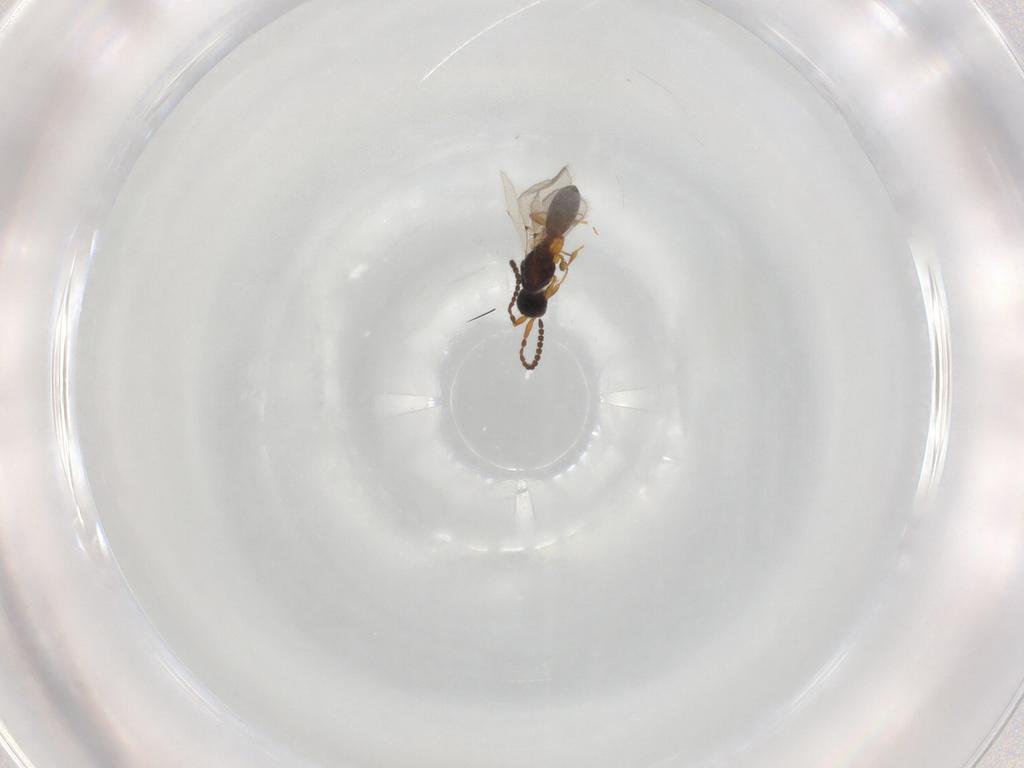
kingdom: Animalia
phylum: Arthropoda
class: Insecta
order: Hymenoptera
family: Diapriidae
